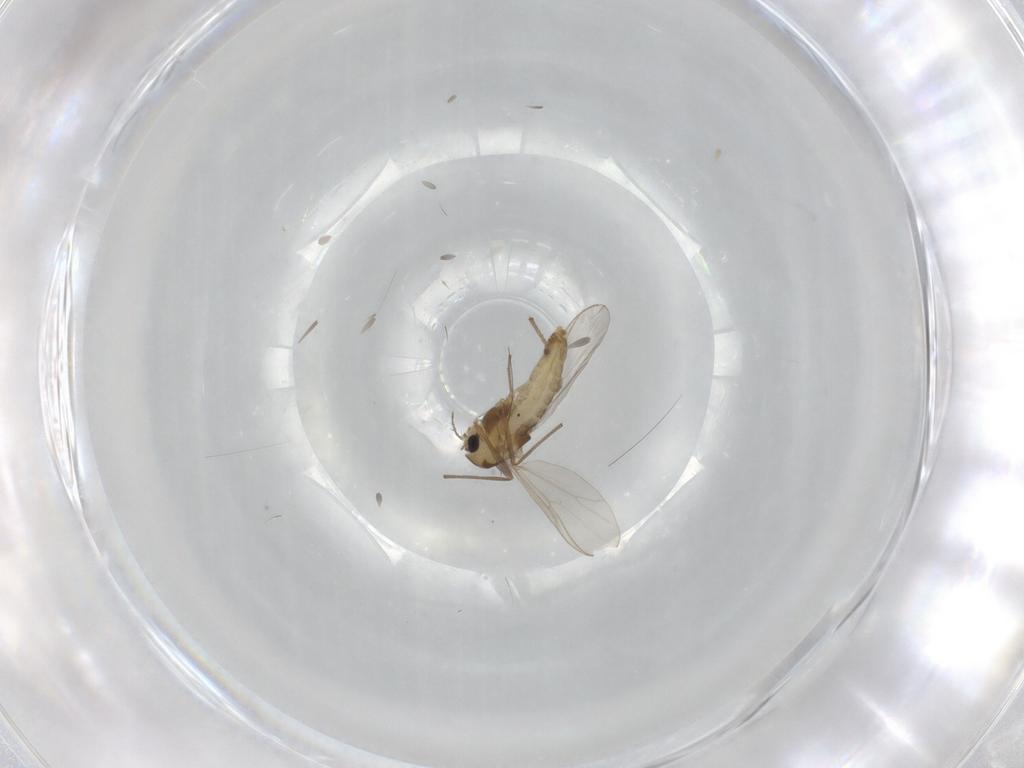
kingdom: Animalia
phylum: Arthropoda
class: Insecta
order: Diptera
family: Chironomidae
